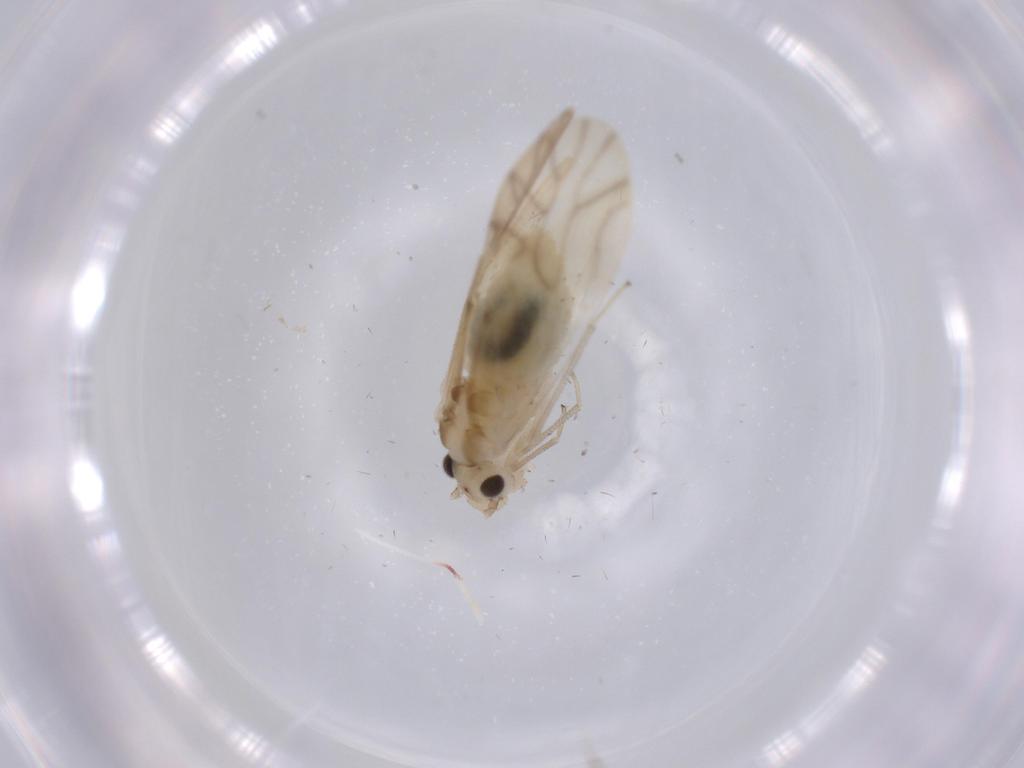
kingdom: Animalia
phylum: Arthropoda
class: Insecta
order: Psocodea
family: Caeciliusidae
